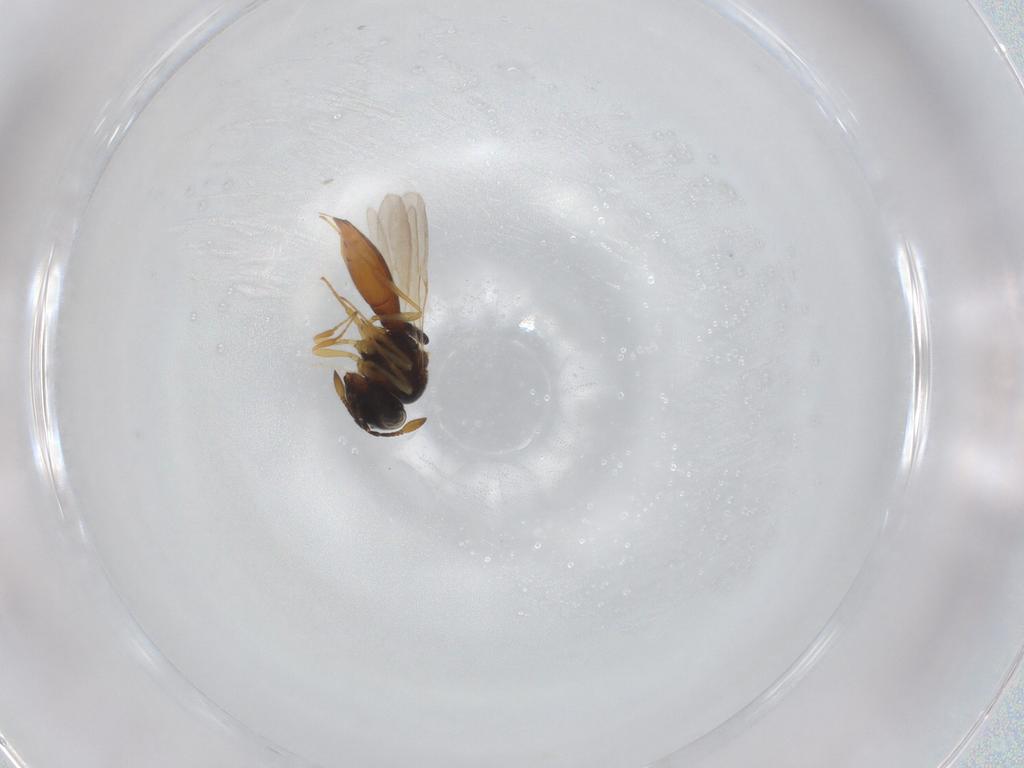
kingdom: Animalia
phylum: Arthropoda
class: Insecta
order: Hymenoptera
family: Scelionidae
